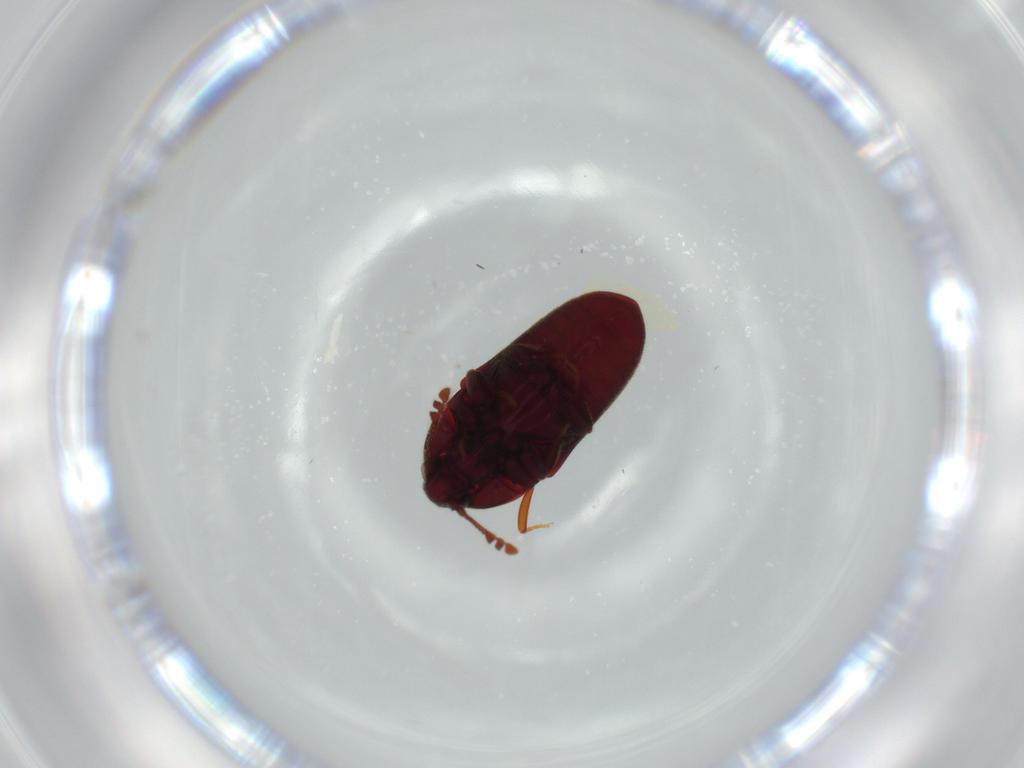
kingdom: Animalia
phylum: Arthropoda
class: Insecta
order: Coleoptera
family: Throscidae
